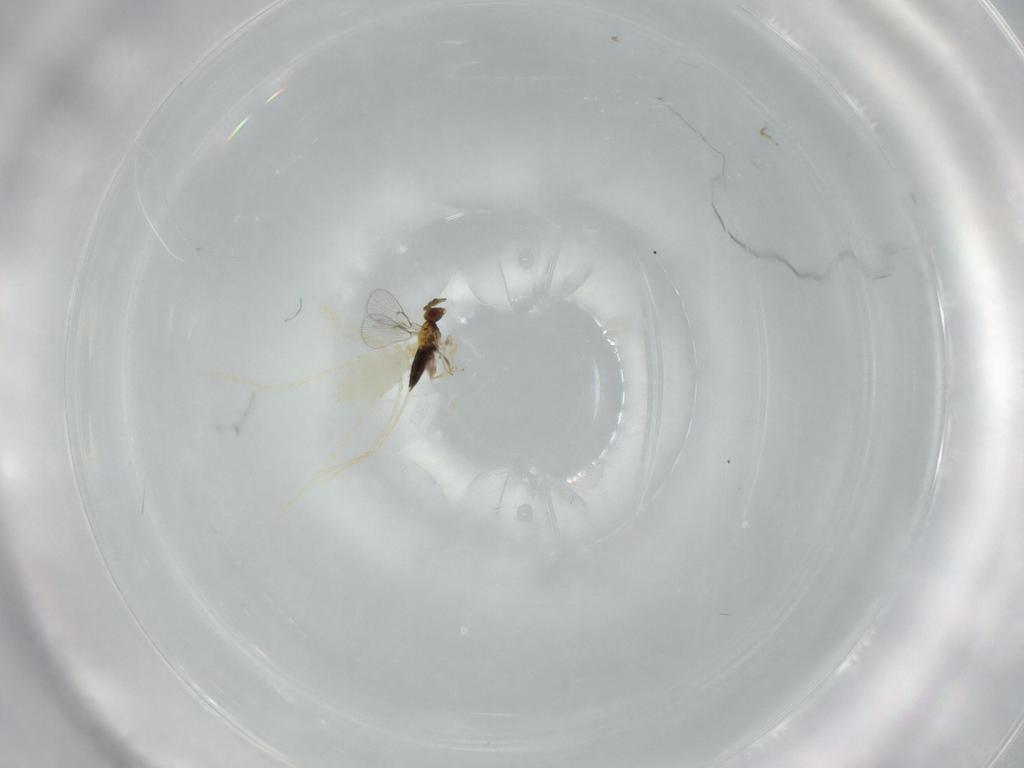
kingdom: Animalia
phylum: Arthropoda
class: Insecta
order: Hymenoptera
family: Trichogrammatidae
